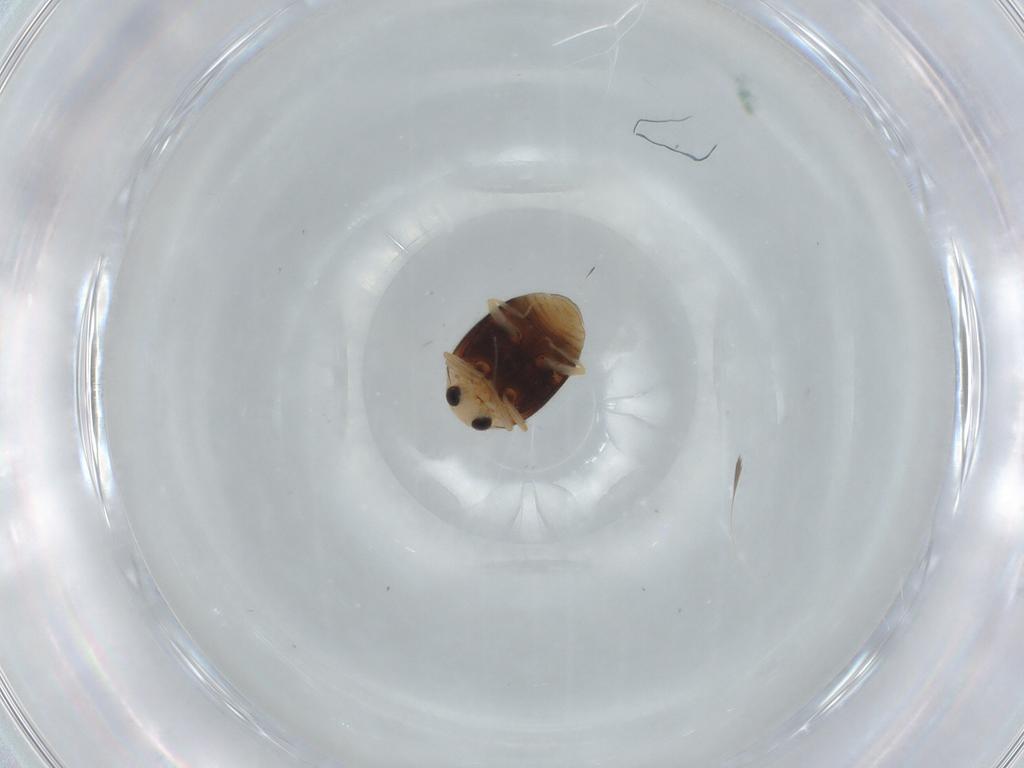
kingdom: Animalia
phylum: Arthropoda
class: Insecta
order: Coleoptera
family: Coccinellidae
